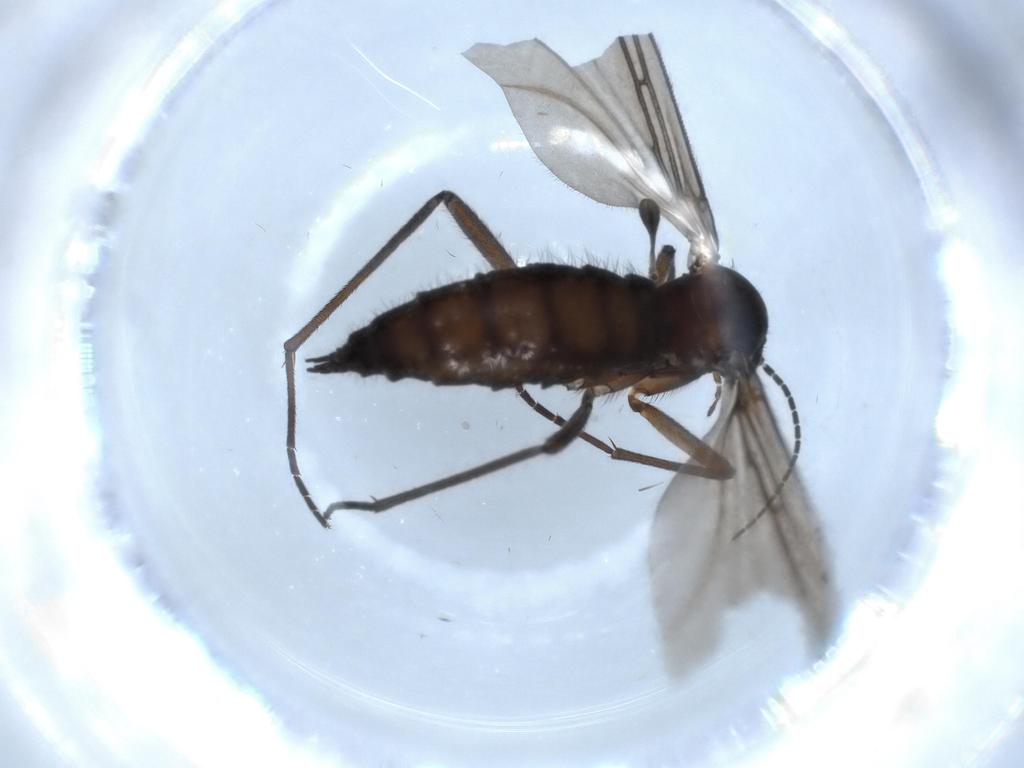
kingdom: Animalia
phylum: Arthropoda
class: Insecta
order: Diptera
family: Sciaridae
